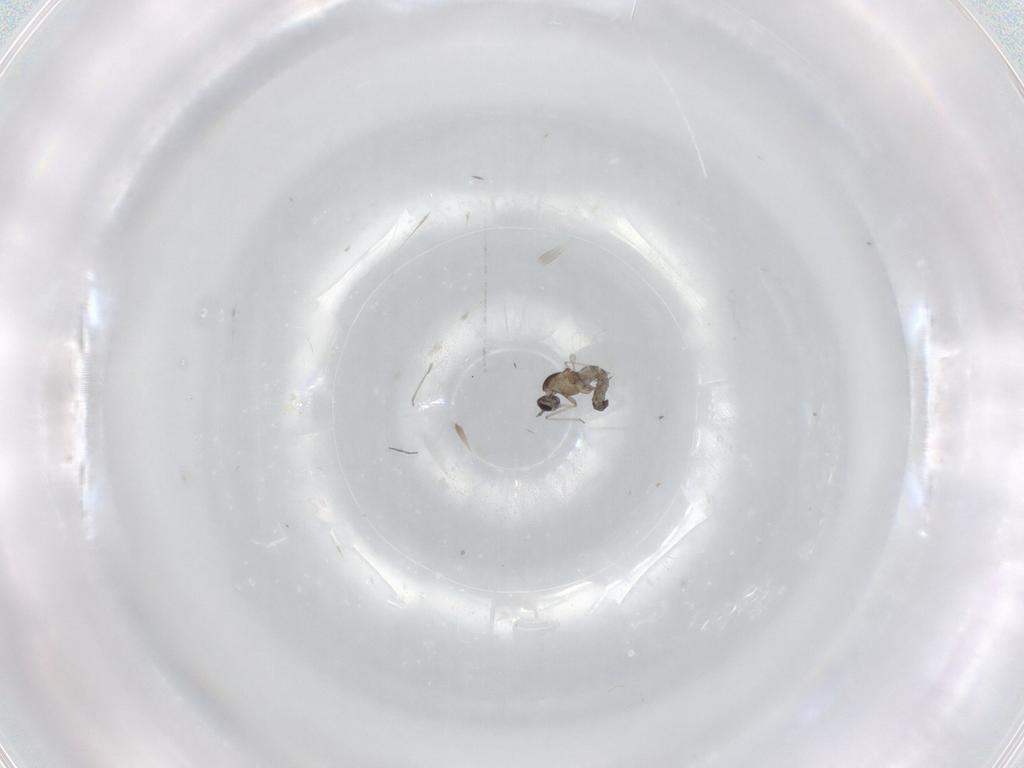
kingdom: Animalia
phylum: Arthropoda
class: Insecta
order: Diptera
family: Cecidomyiidae
